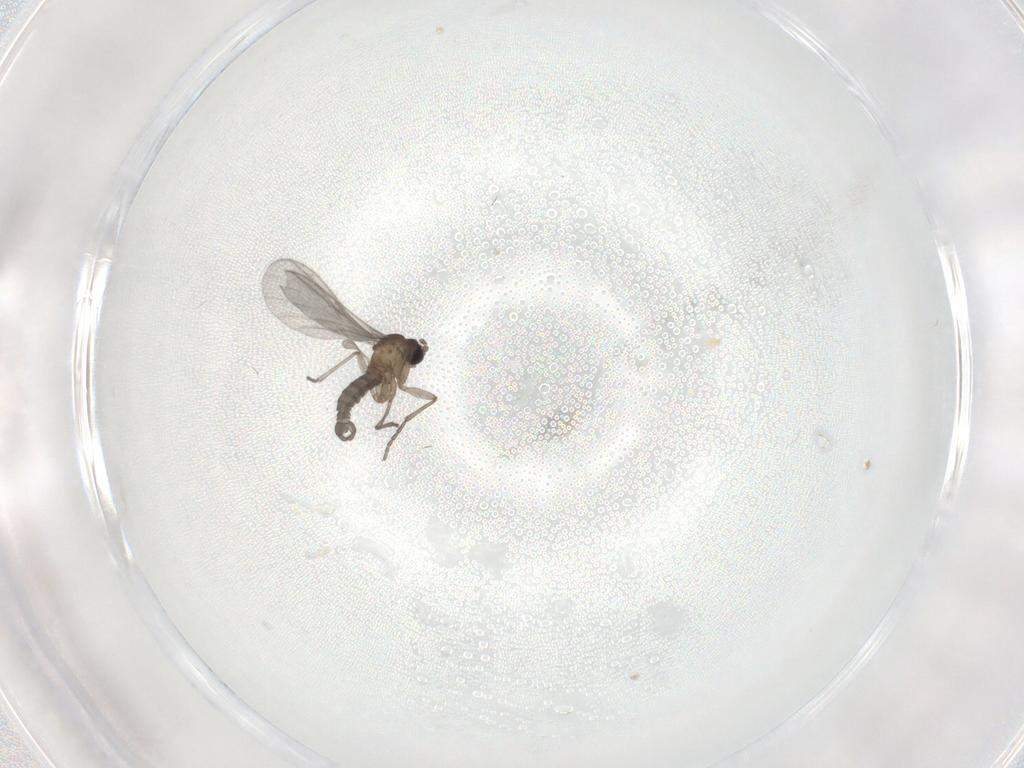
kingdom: Animalia
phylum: Arthropoda
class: Insecta
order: Diptera
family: Sciaridae
